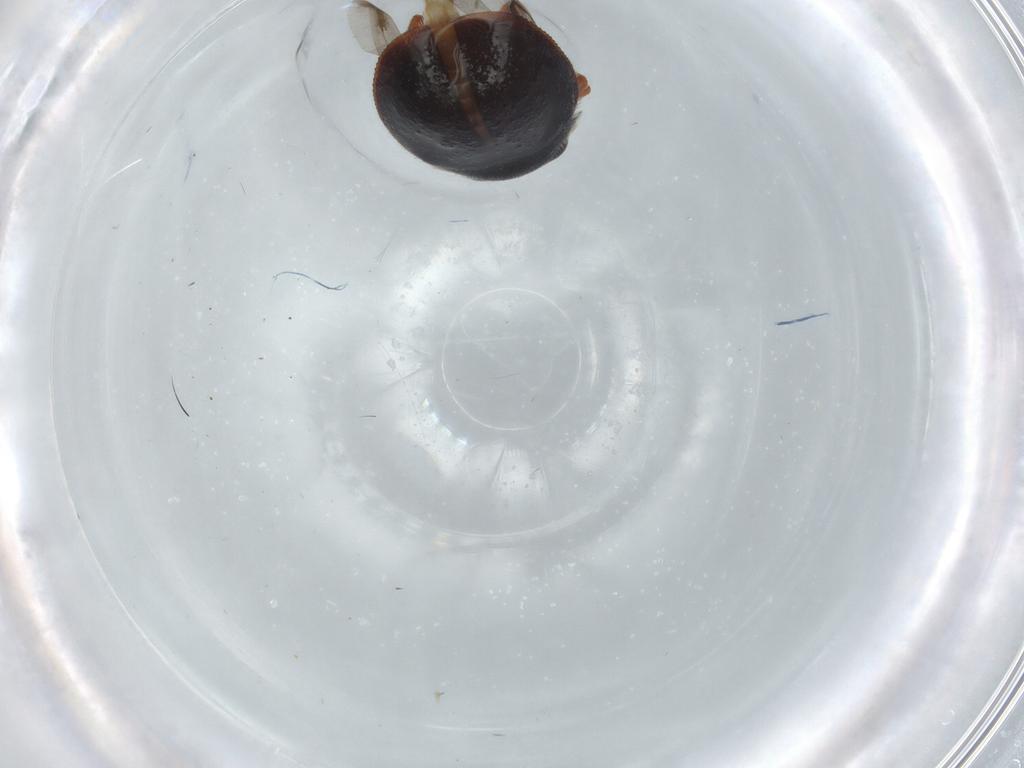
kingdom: Animalia
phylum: Arthropoda
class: Insecta
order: Coleoptera
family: Coccinellidae
